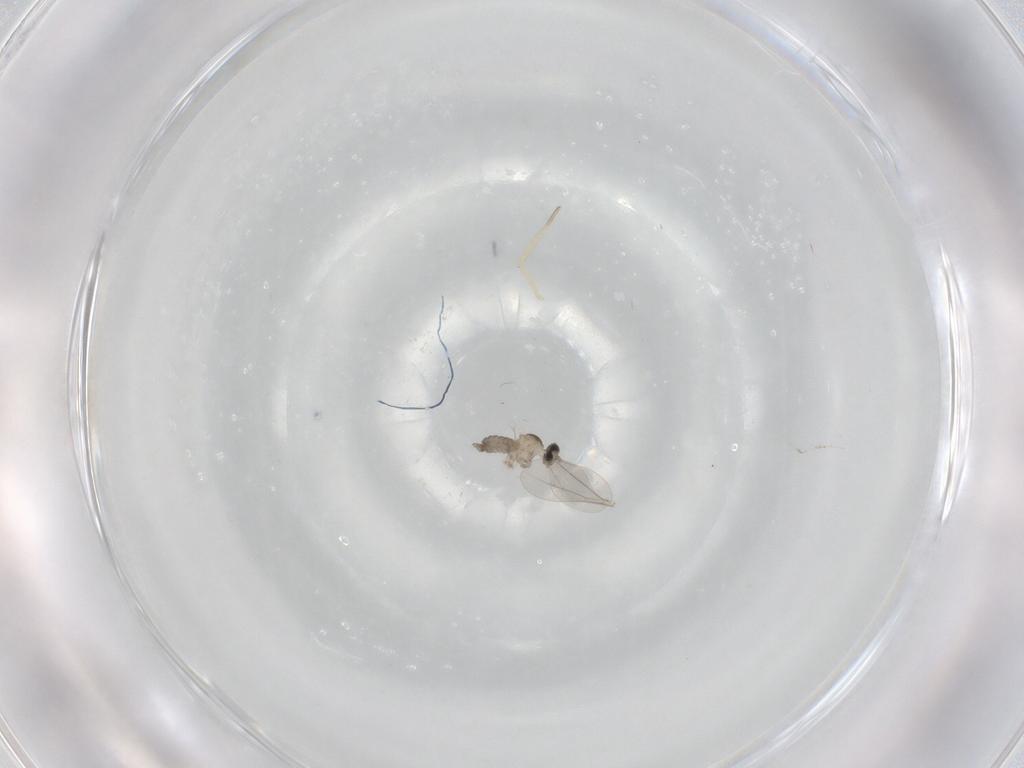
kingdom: Animalia
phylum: Arthropoda
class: Insecta
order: Diptera
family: Cecidomyiidae
